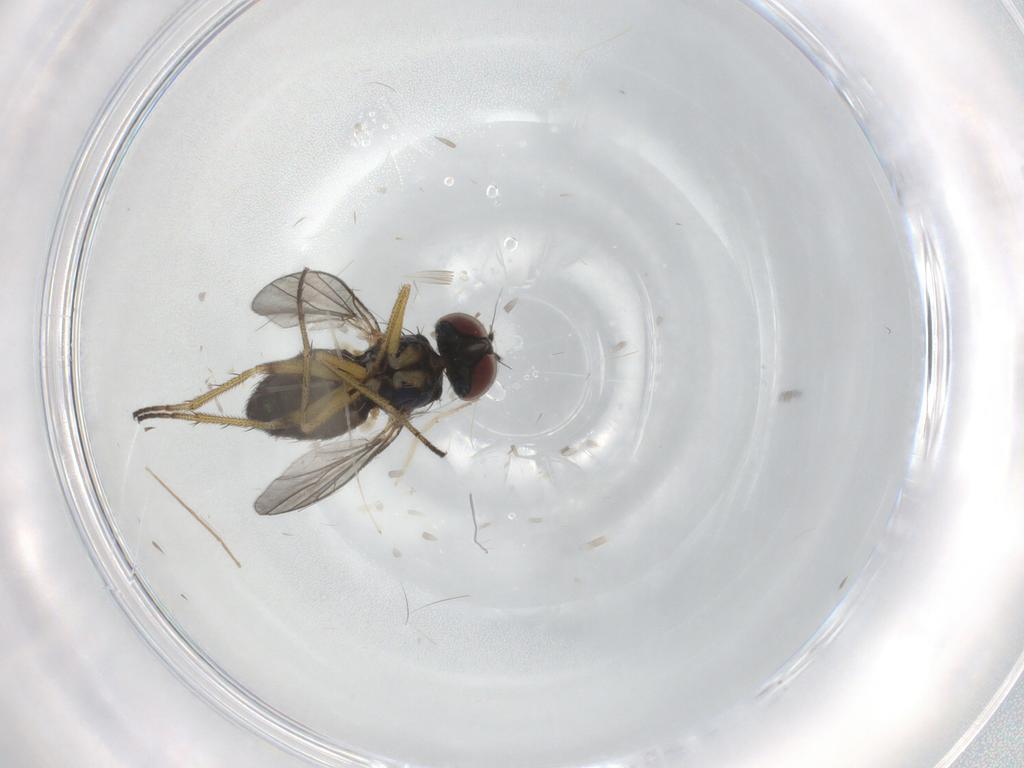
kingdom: Animalia
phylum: Arthropoda
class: Insecta
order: Diptera
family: Dolichopodidae
